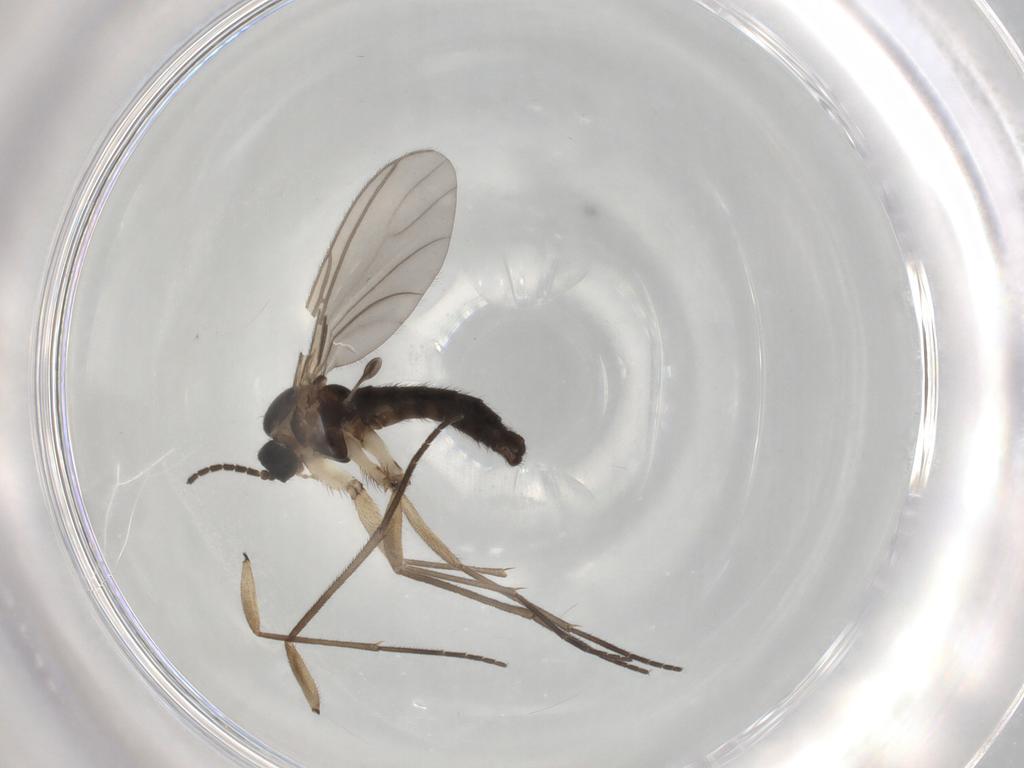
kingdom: Animalia
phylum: Arthropoda
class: Insecta
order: Diptera
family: Sciaridae
